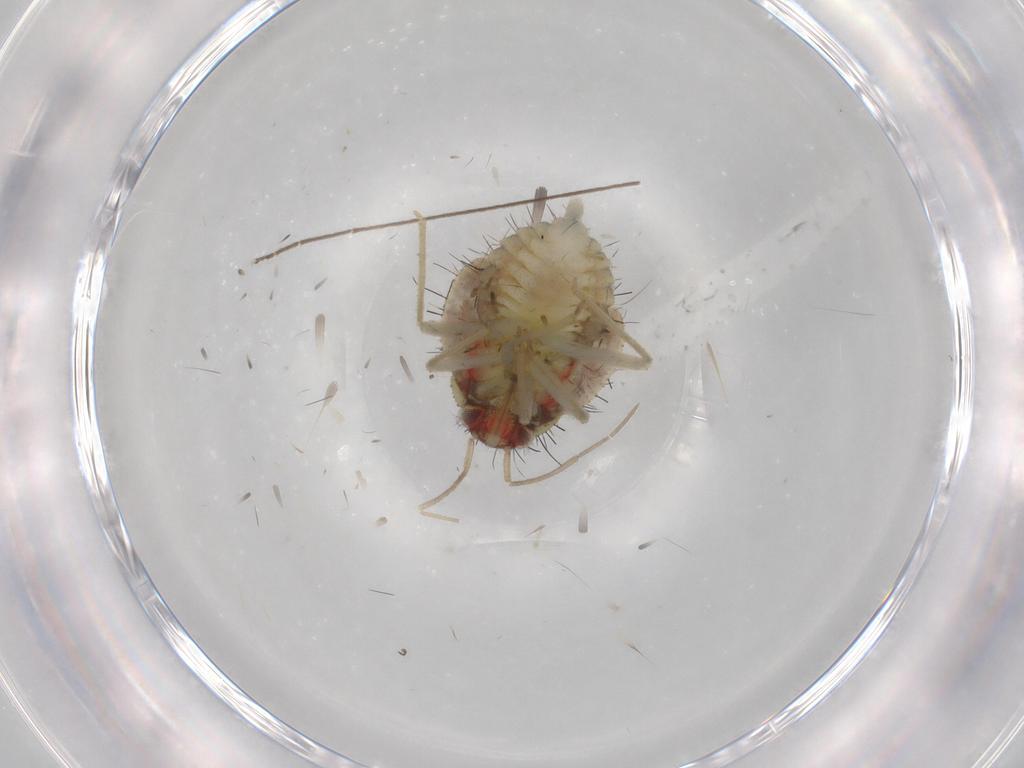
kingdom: Animalia
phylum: Arthropoda
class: Insecta
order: Hemiptera
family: Miridae
